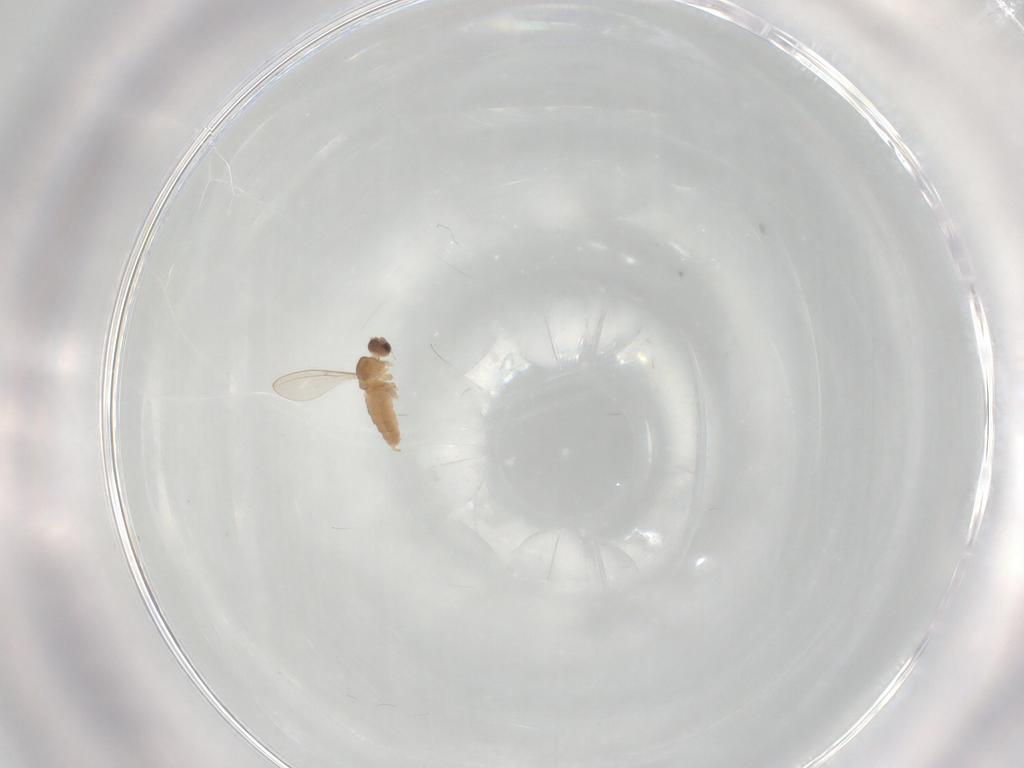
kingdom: Animalia
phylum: Arthropoda
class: Insecta
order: Diptera
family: Cecidomyiidae
